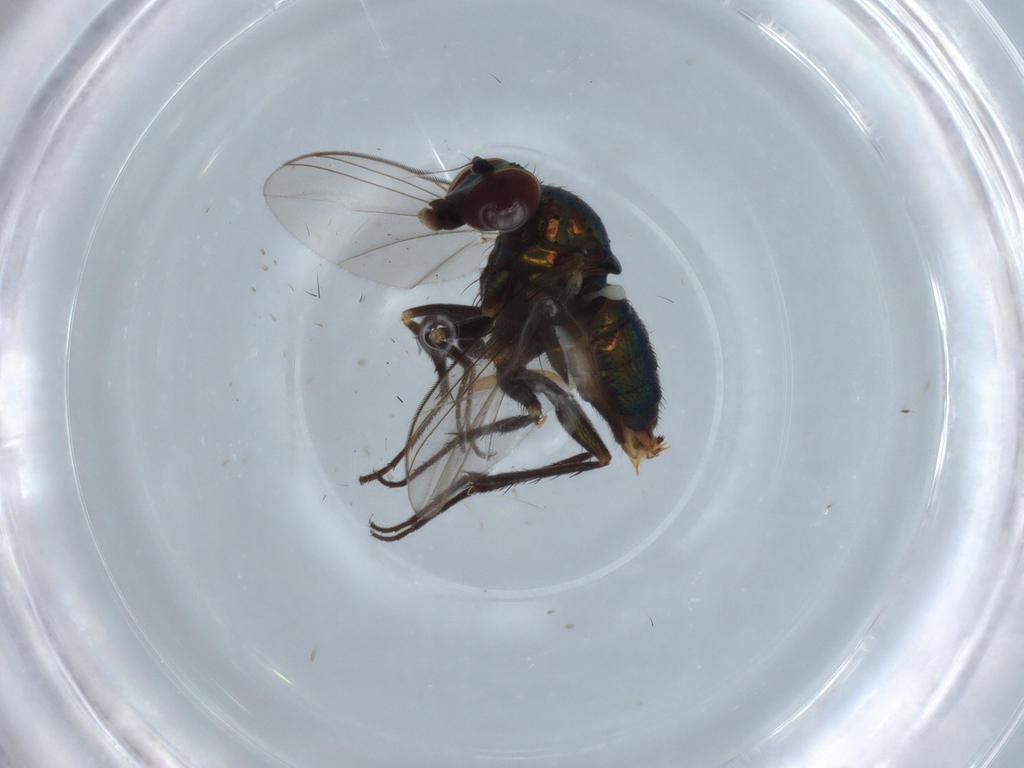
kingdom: Animalia
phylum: Arthropoda
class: Insecta
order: Diptera
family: Dolichopodidae
